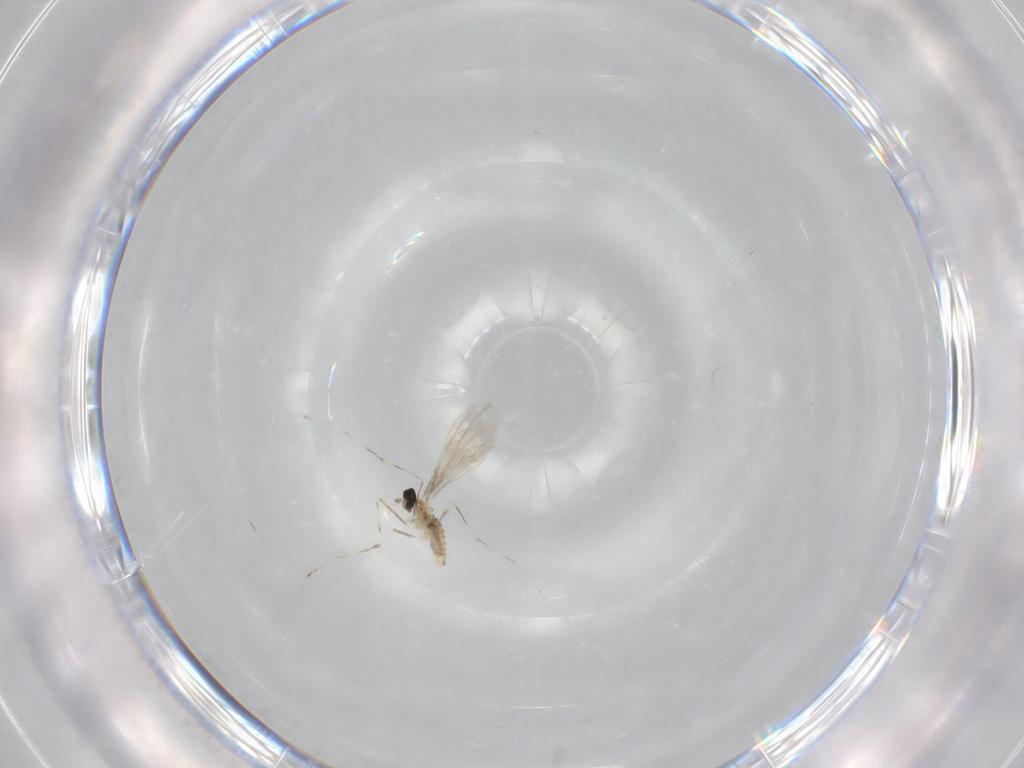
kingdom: Animalia
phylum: Arthropoda
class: Insecta
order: Diptera
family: Cecidomyiidae
